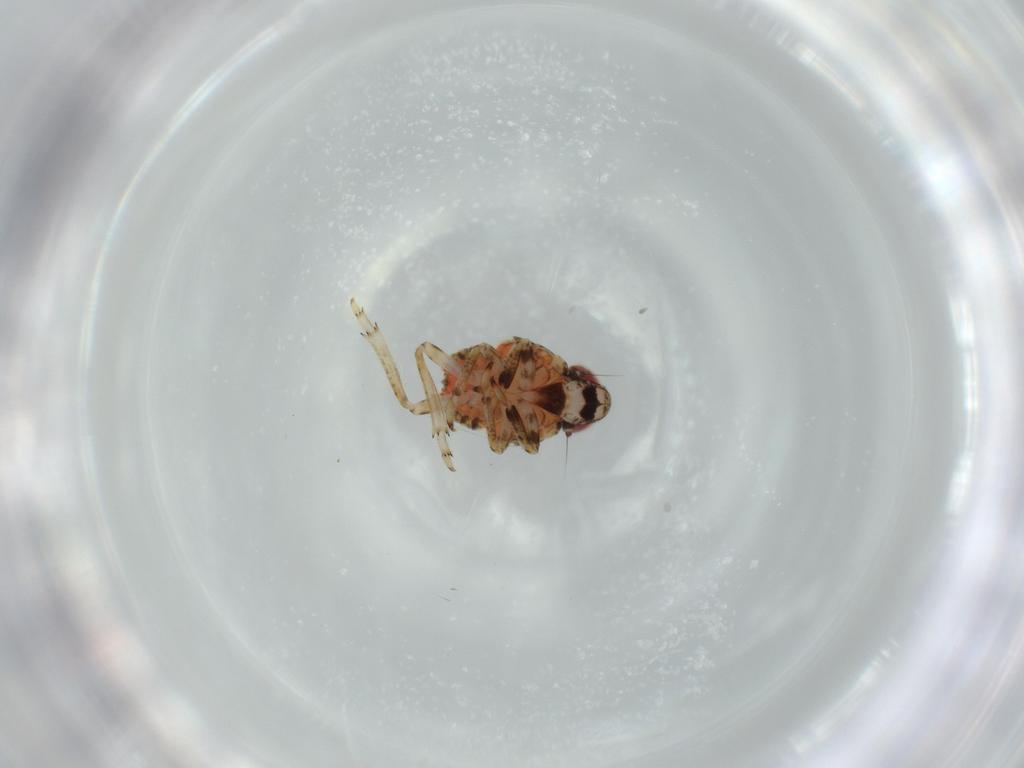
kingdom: Animalia
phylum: Arthropoda
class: Insecta
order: Hemiptera
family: Issidae
